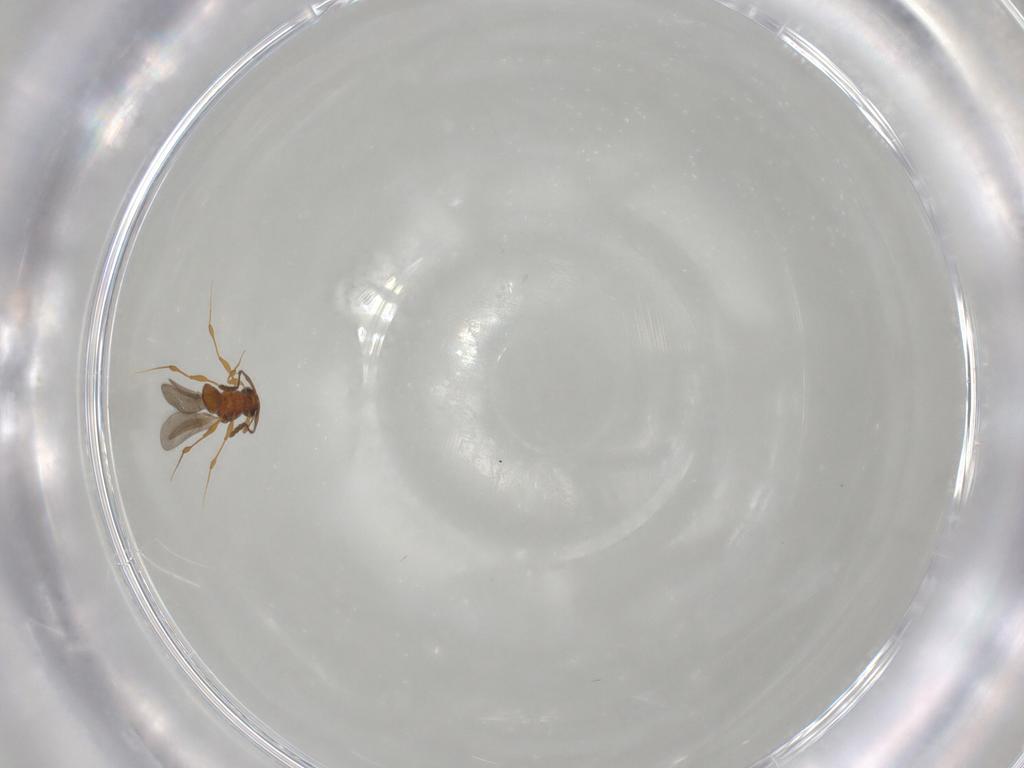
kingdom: Animalia
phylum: Arthropoda
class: Insecta
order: Hymenoptera
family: Platygastridae
